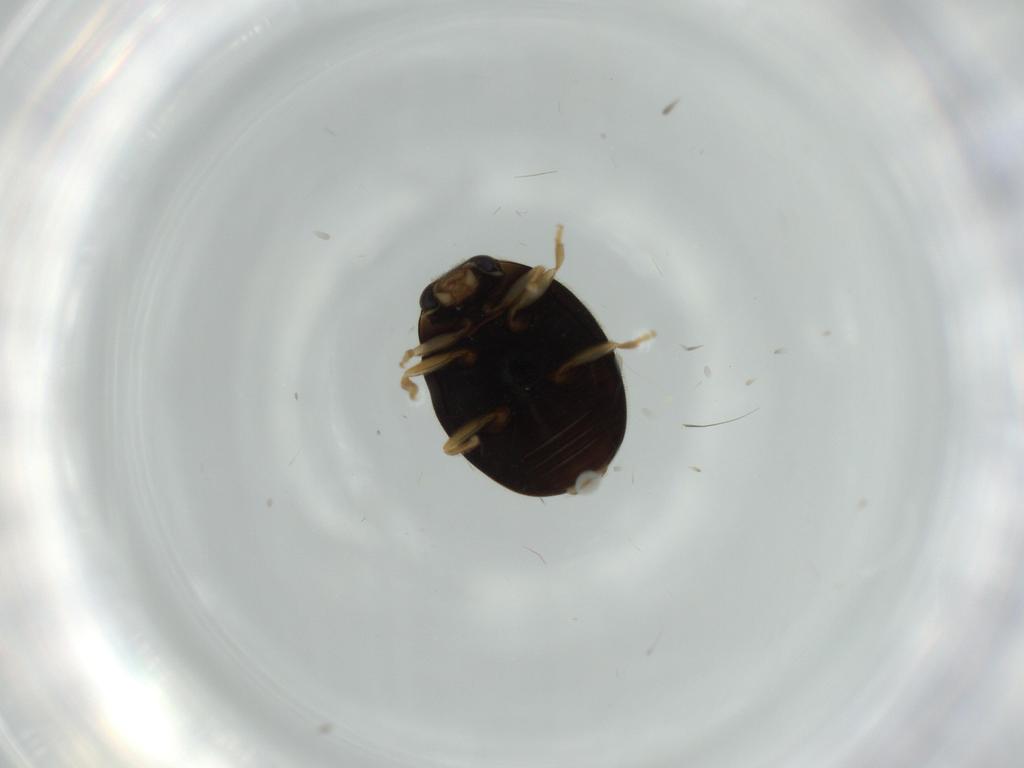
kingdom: Animalia
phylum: Arthropoda
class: Insecta
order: Coleoptera
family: Coccinellidae
